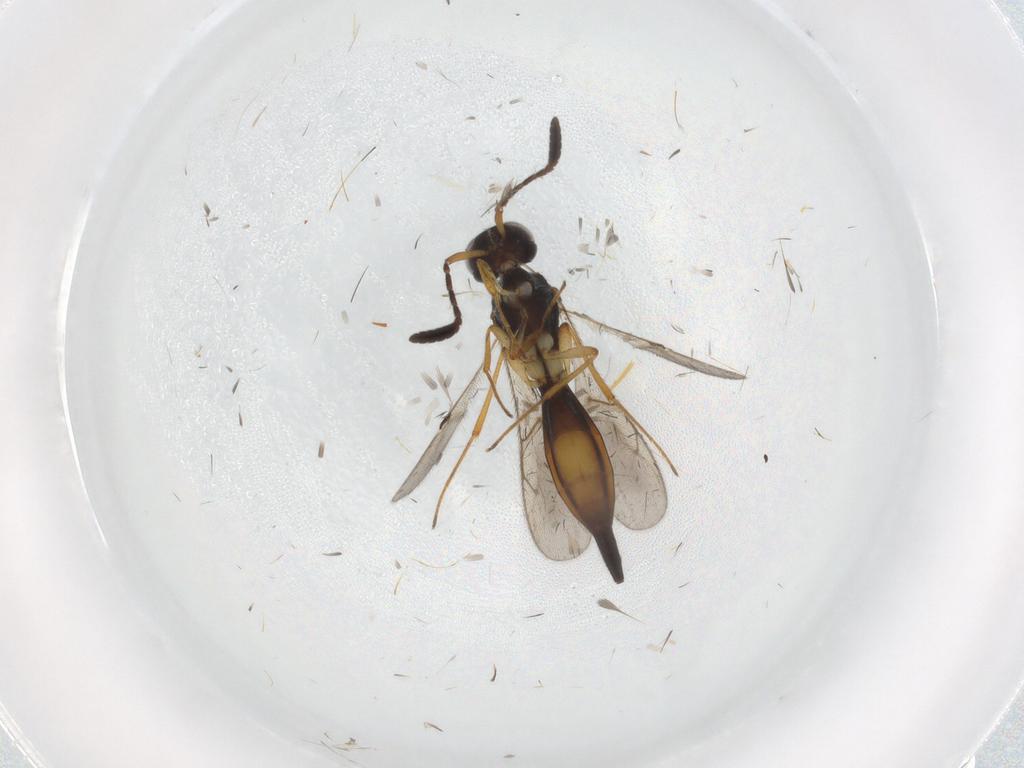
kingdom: Animalia
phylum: Arthropoda
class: Insecta
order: Hymenoptera
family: Scelionidae
